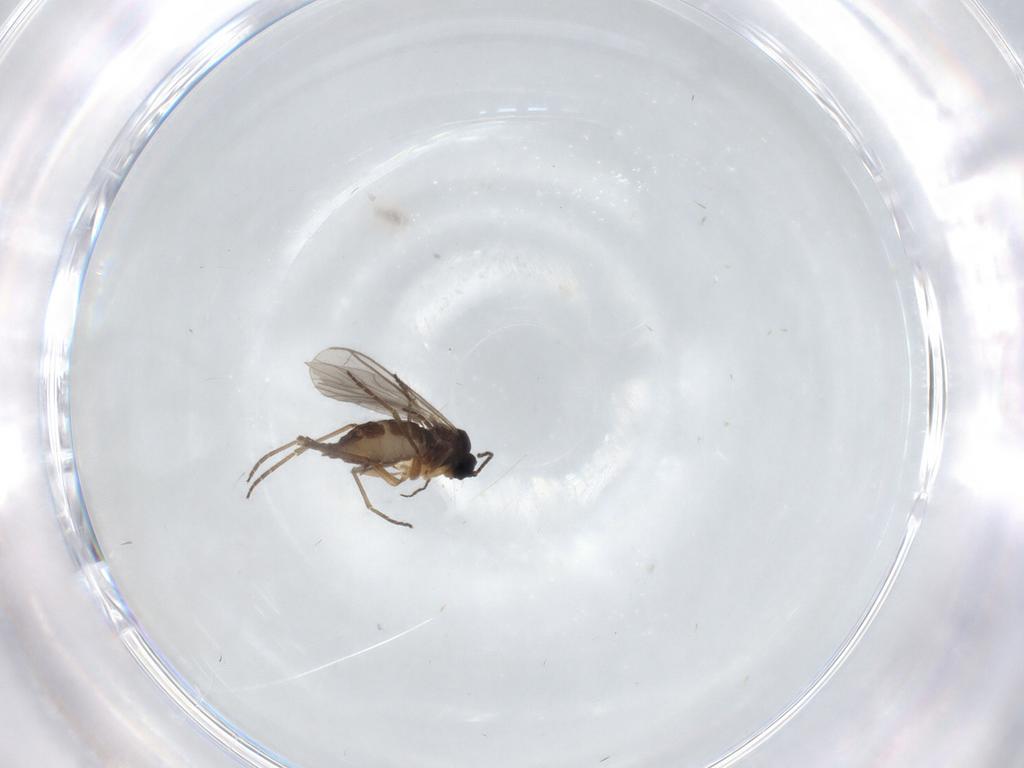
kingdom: Animalia
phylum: Arthropoda
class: Insecta
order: Diptera
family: Ceratopogonidae
